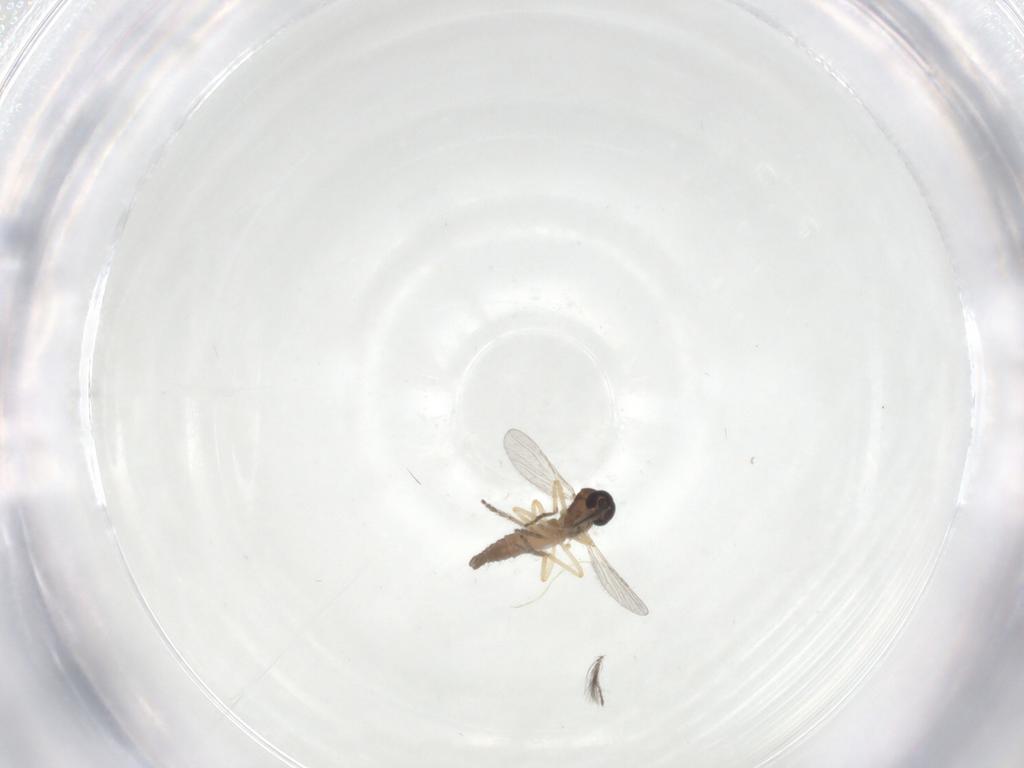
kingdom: Animalia
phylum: Arthropoda
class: Insecta
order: Diptera
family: Ceratopogonidae
